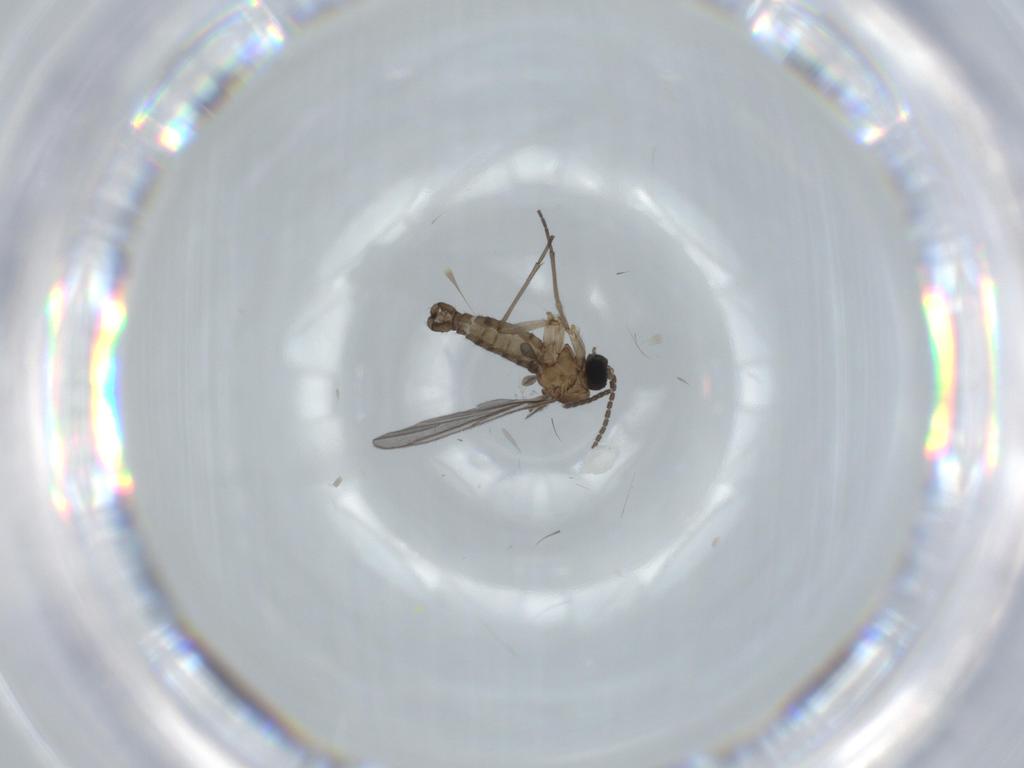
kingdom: Animalia
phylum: Arthropoda
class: Insecta
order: Diptera
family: Sciaridae
